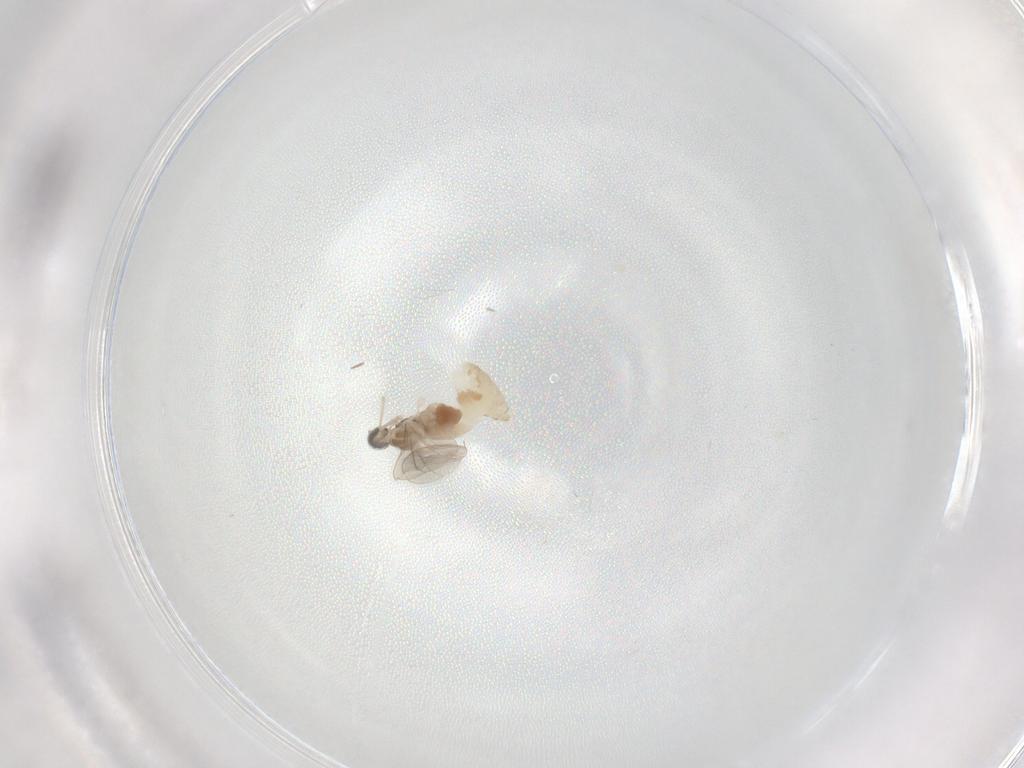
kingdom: Animalia
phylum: Arthropoda
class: Insecta
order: Diptera
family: Cecidomyiidae
